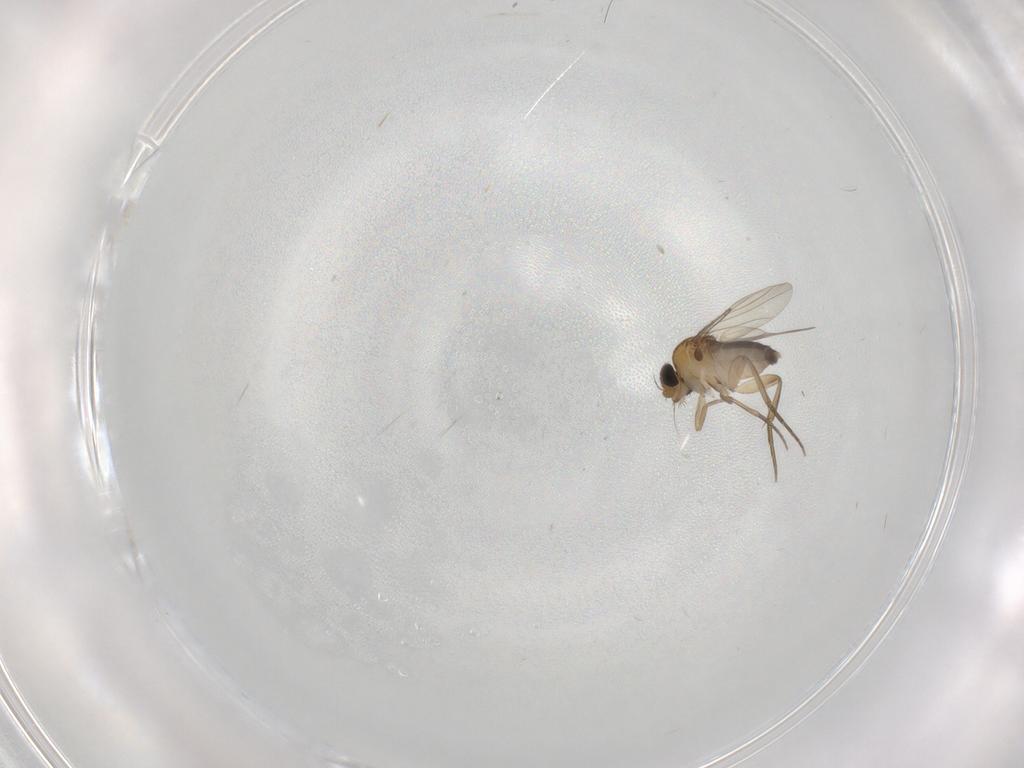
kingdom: Animalia
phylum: Arthropoda
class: Insecta
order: Diptera
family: Phoridae
